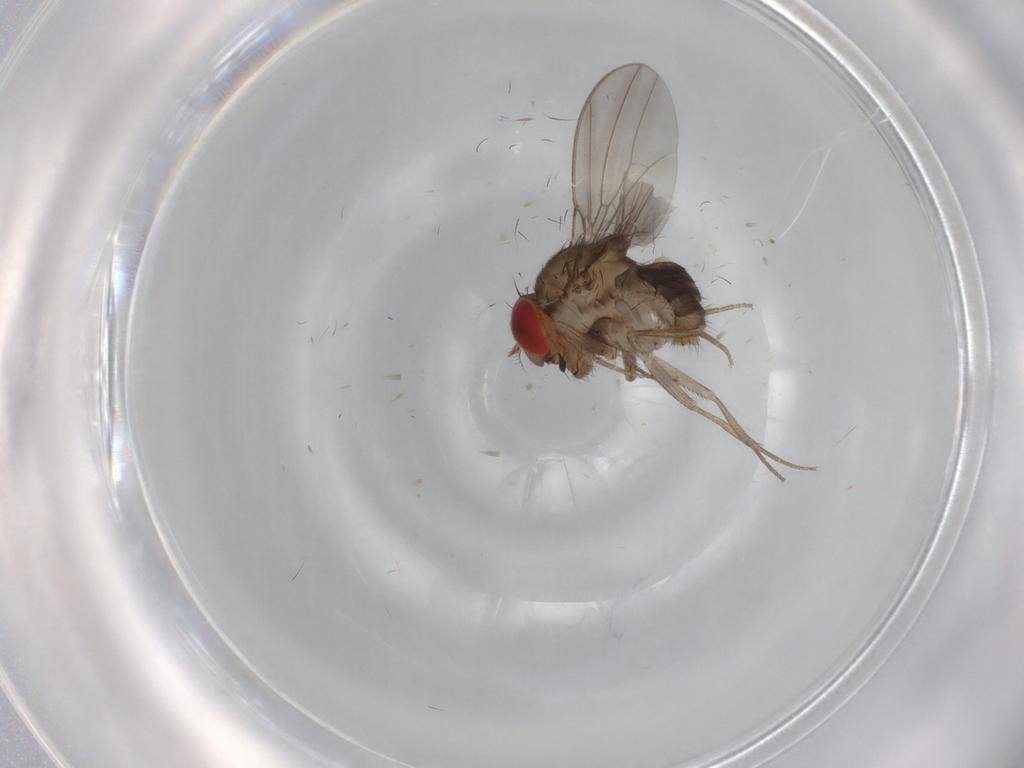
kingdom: Animalia
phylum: Arthropoda
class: Insecta
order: Diptera
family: Drosophilidae
